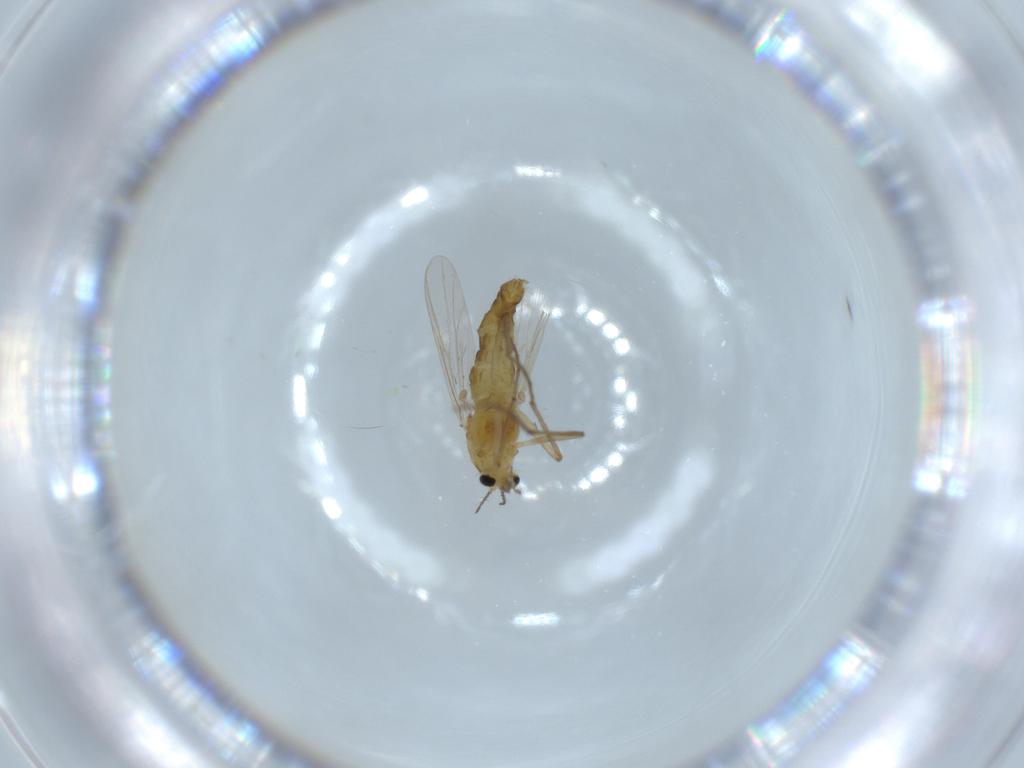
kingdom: Animalia
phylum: Arthropoda
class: Insecta
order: Diptera
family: Chironomidae
